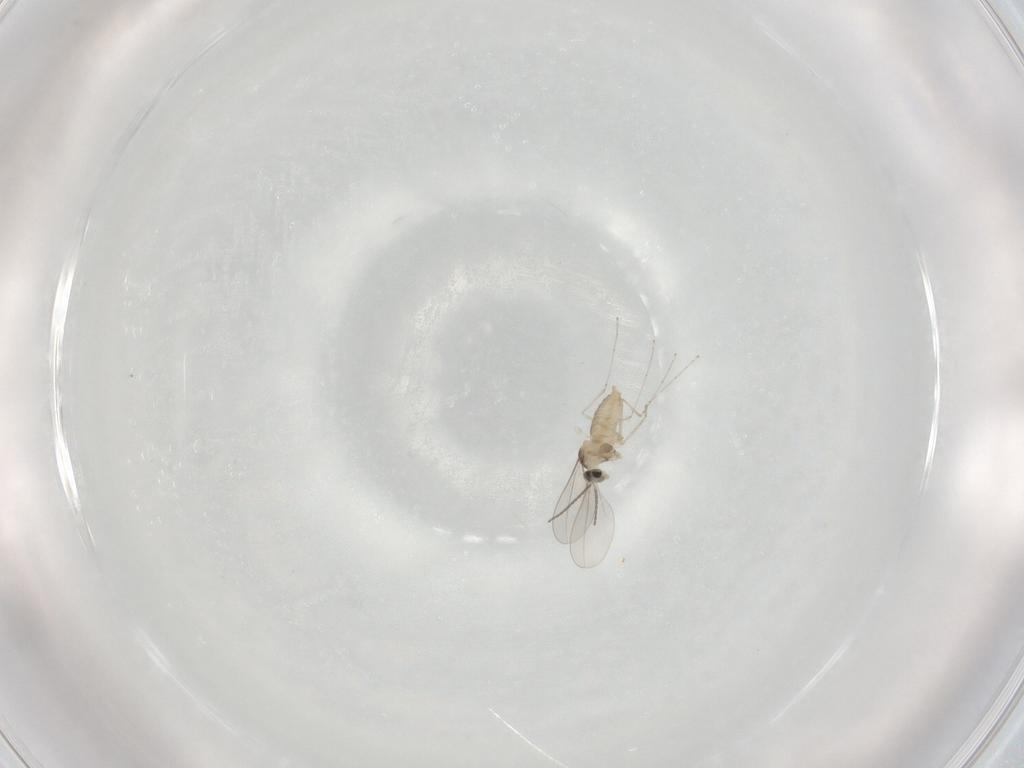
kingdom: Animalia
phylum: Arthropoda
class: Insecta
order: Diptera
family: Cecidomyiidae
